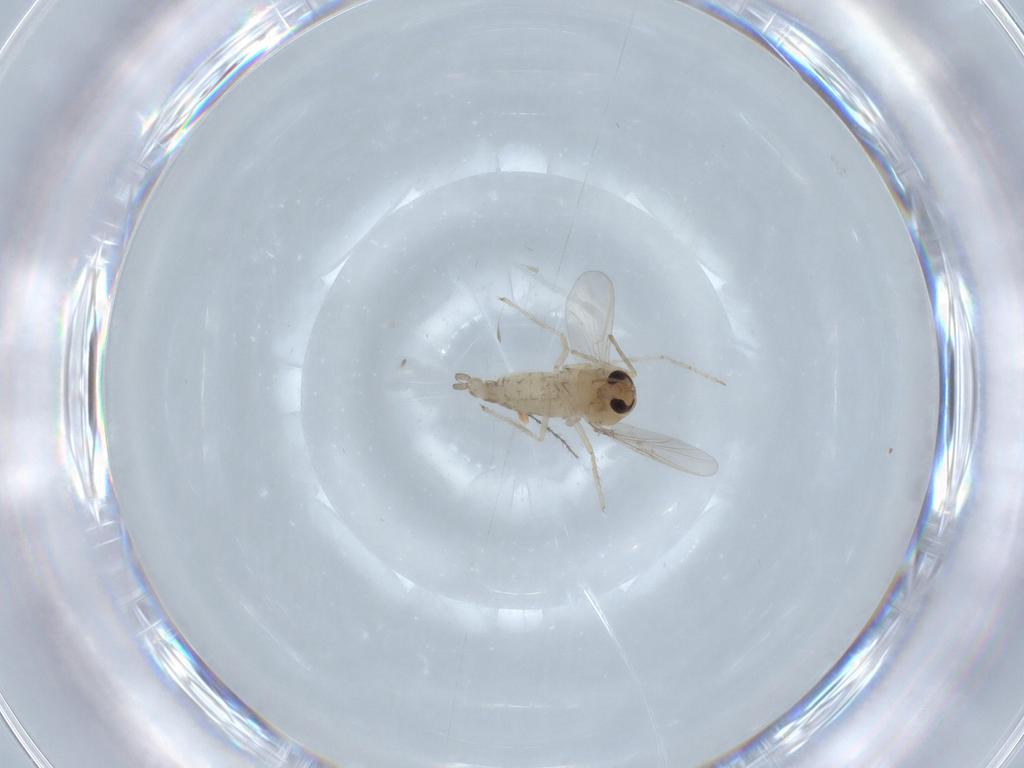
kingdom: Animalia
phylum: Arthropoda
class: Insecta
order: Diptera
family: Chironomidae
